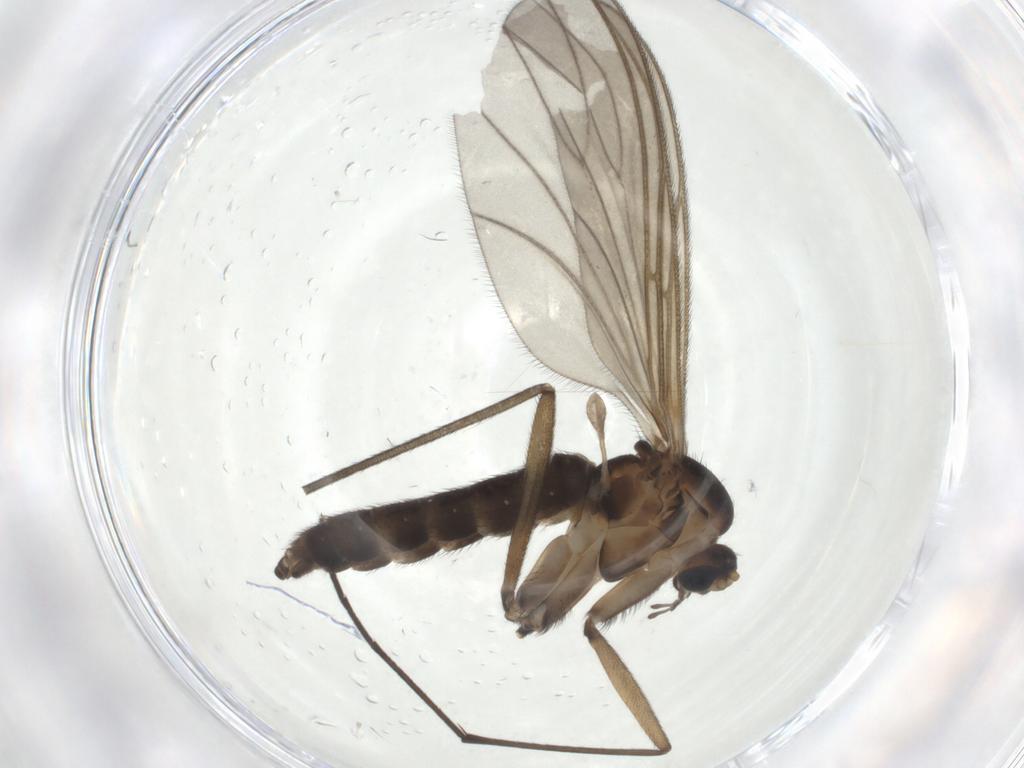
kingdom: Animalia
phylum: Arthropoda
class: Insecta
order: Diptera
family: Sciaridae
